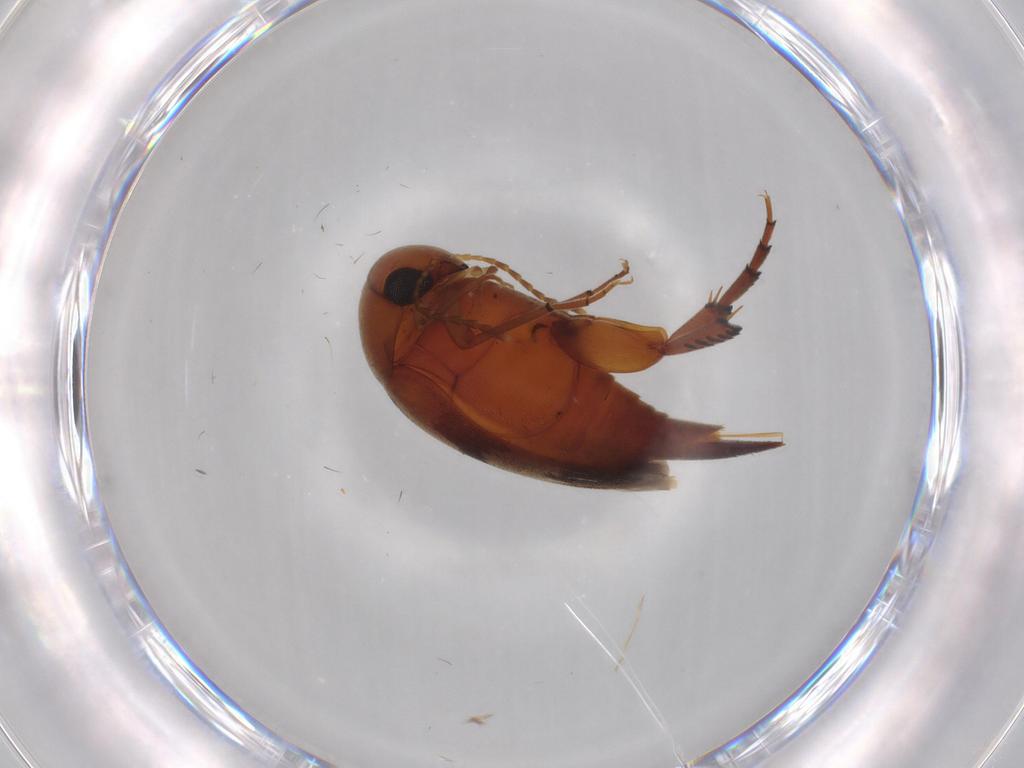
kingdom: Animalia
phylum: Arthropoda
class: Insecta
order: Coleoptera
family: Mordellidae
